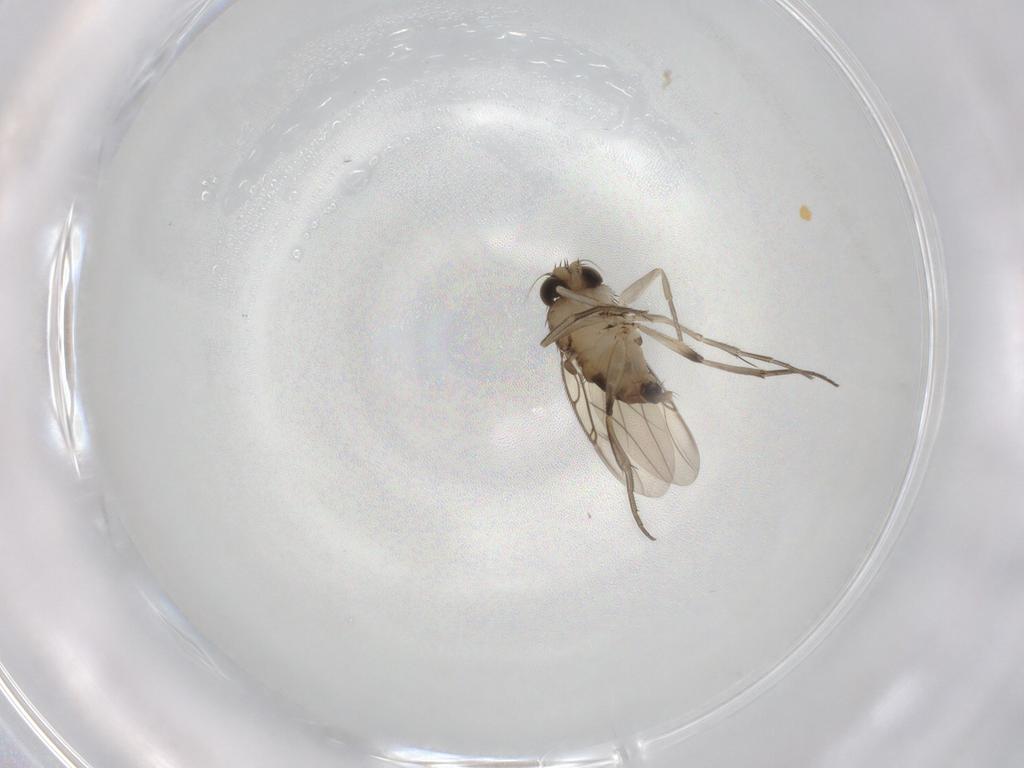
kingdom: Animalia
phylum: Arthropoda
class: Insecta
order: Diptera
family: Phoridae
